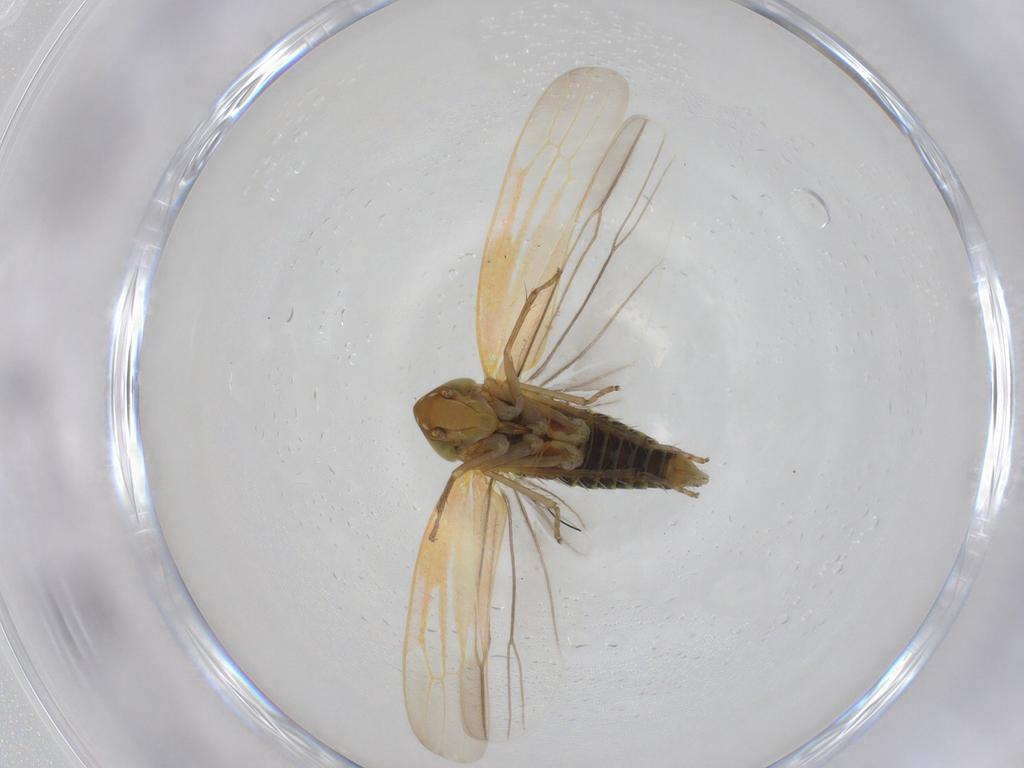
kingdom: Animalia
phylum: Arthropoda
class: Insecta
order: Hemiptera
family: Cicadellidae
